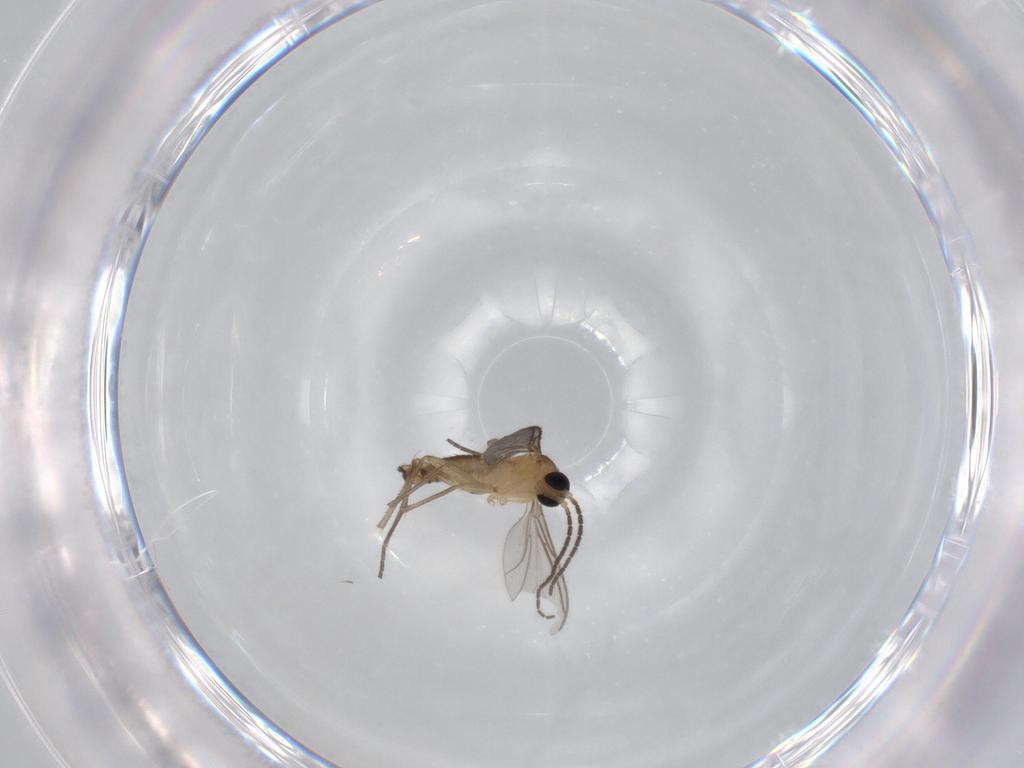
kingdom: Animalia
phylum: Arthropoda
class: Insecta
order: Diptera
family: Sciaridae
